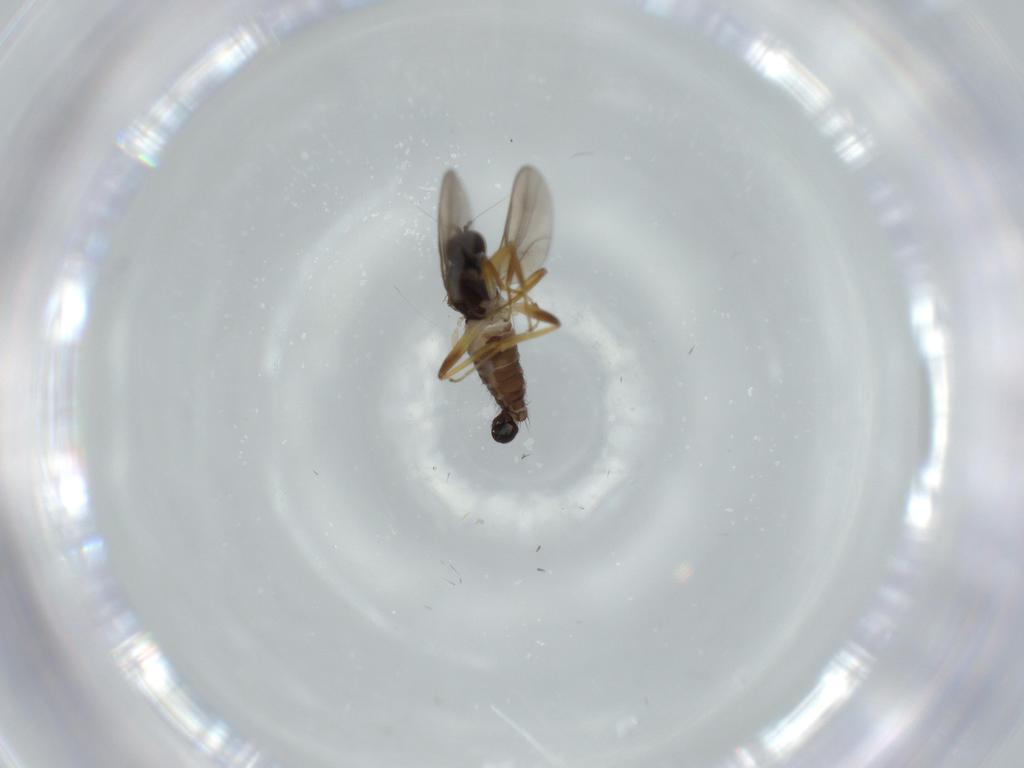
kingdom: Animalia
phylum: Arthropoda
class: Insecta
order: Diptera
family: Hybotidae
